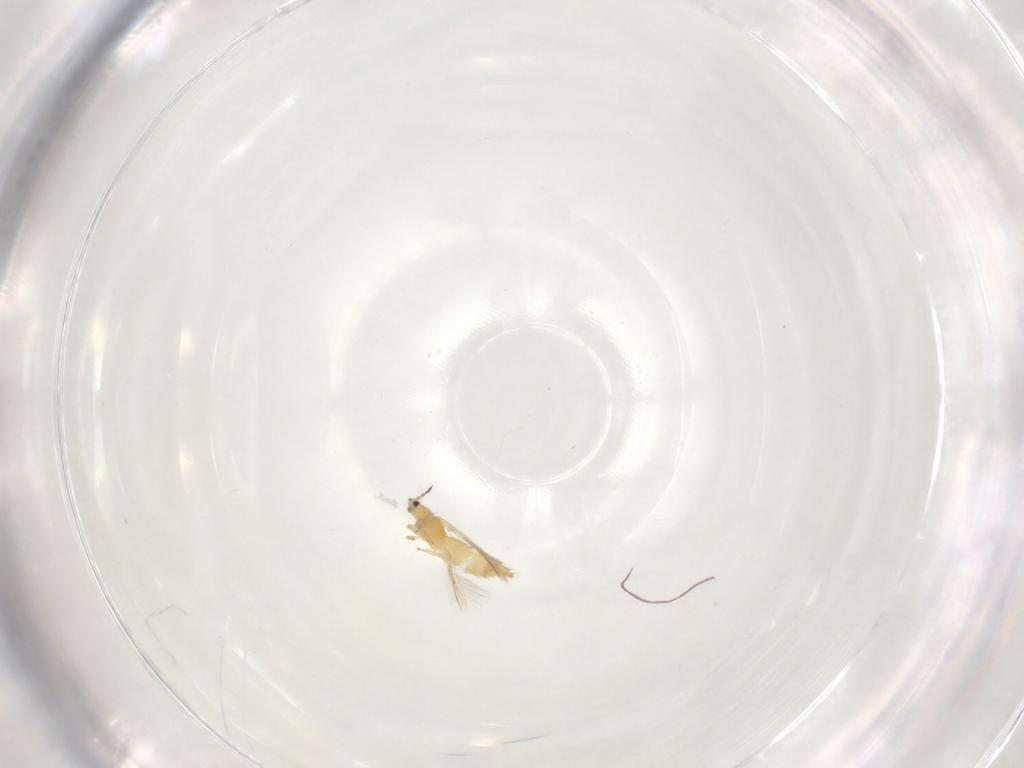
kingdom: Animalia
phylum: Arthropoda
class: Insecta
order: Thysanoptera
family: Thripidae
